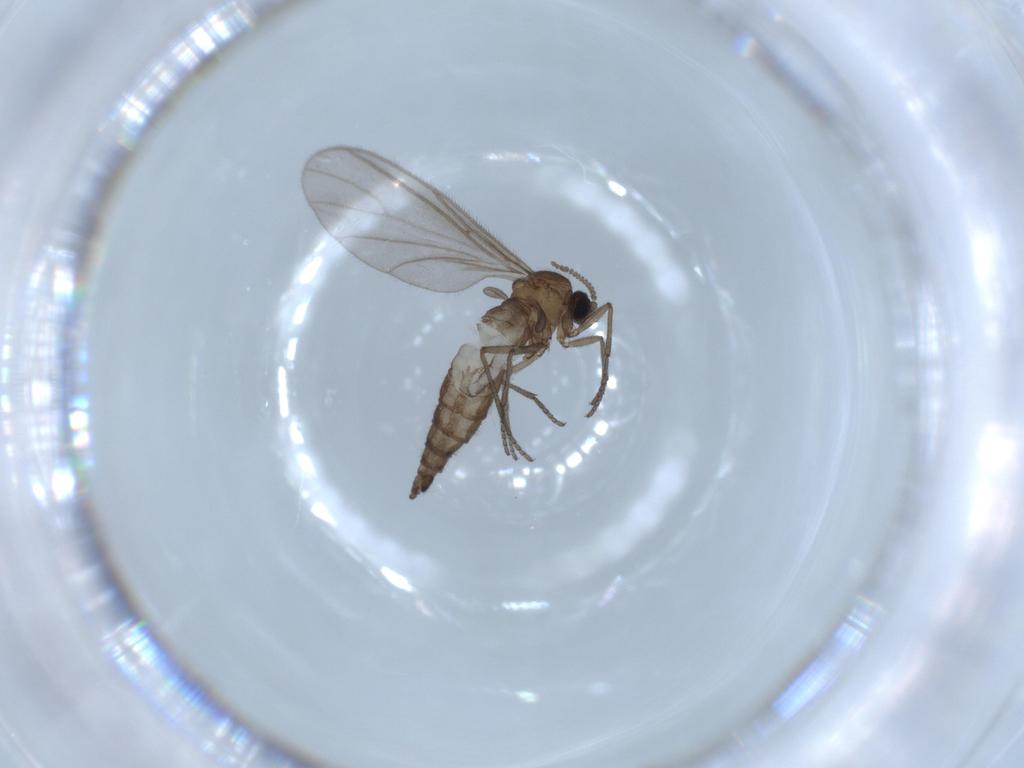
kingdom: Animalia
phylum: Arthropoda
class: Insecta
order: Diptera
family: Sciaridae
